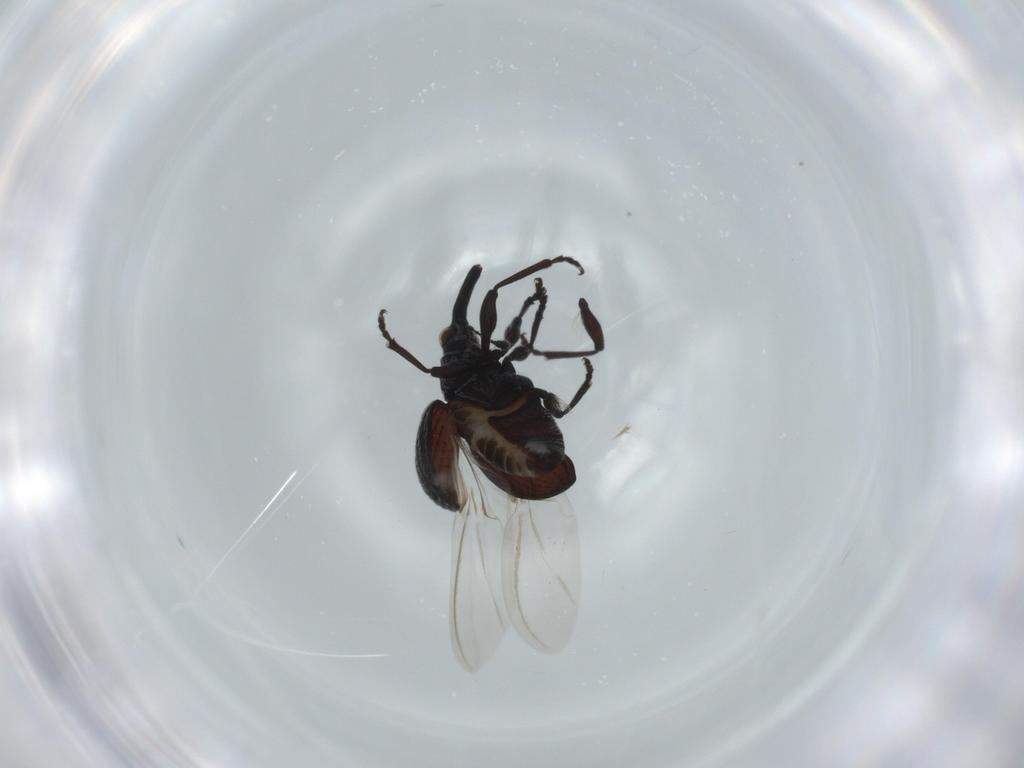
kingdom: Animalia
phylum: Arthropoda
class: Insecta
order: Coleoptera
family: Brentidae
